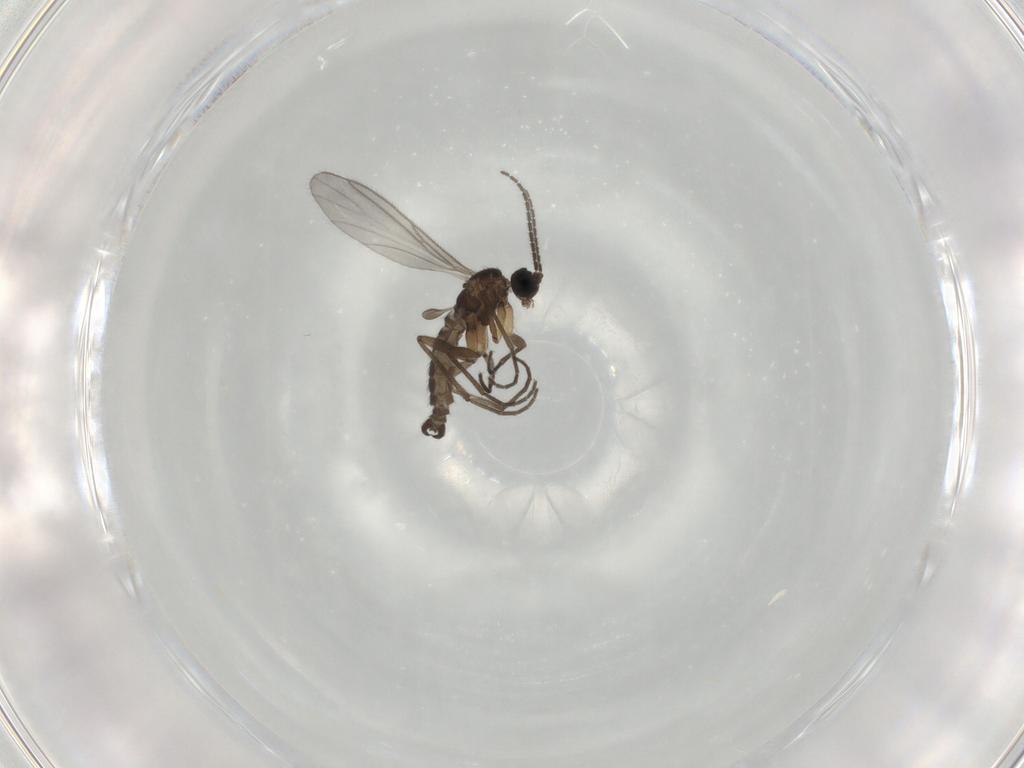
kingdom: Animalia
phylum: Arthropoda
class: Insecta
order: Diptera
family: Sciaridae
